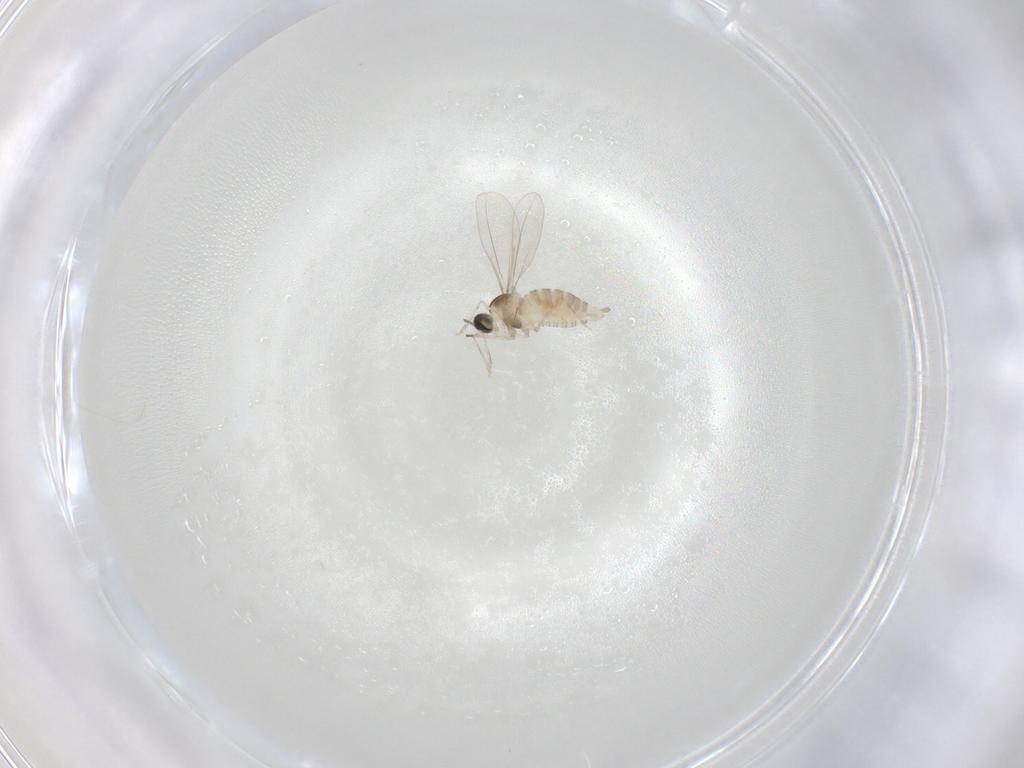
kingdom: Animalia
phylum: Arthropoda
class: Insecta
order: Diptera
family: Cecidomyiidae
